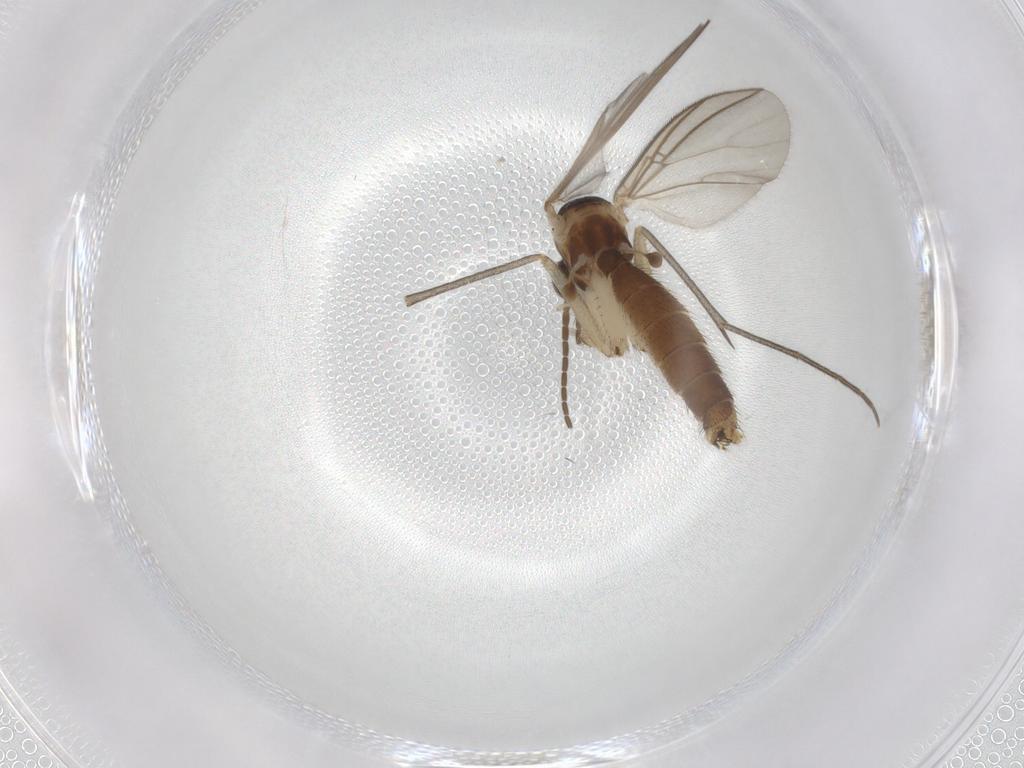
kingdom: Animalia
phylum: Arthropoda
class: Insecta
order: Diptera
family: Mycetophilidae
